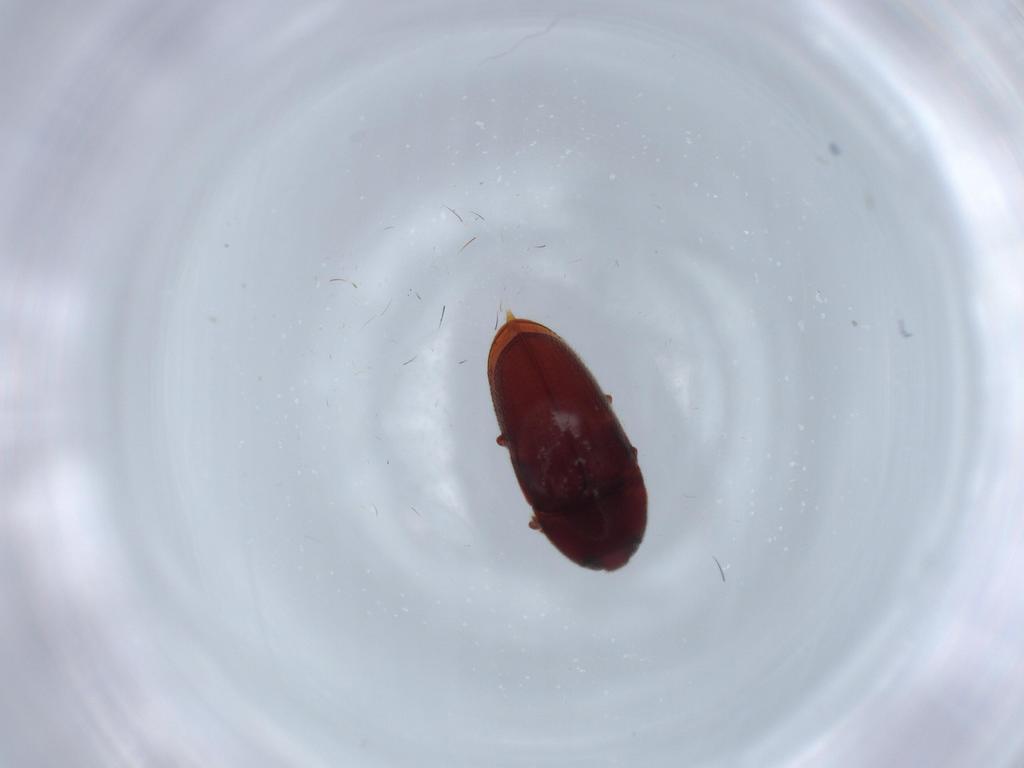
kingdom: Animalia
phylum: Arthropoda
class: Insecta
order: Coleoptera
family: Throscidae
